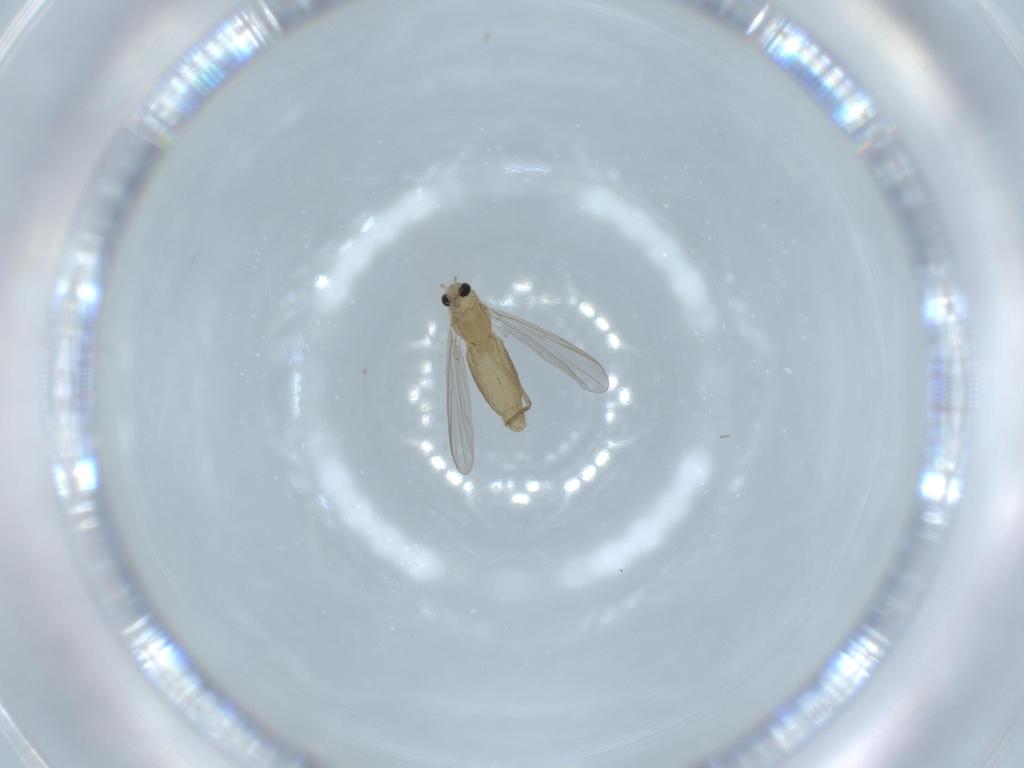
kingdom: Animalia
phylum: Arthropoda
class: Insecta
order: Diptera
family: Chironomidae
